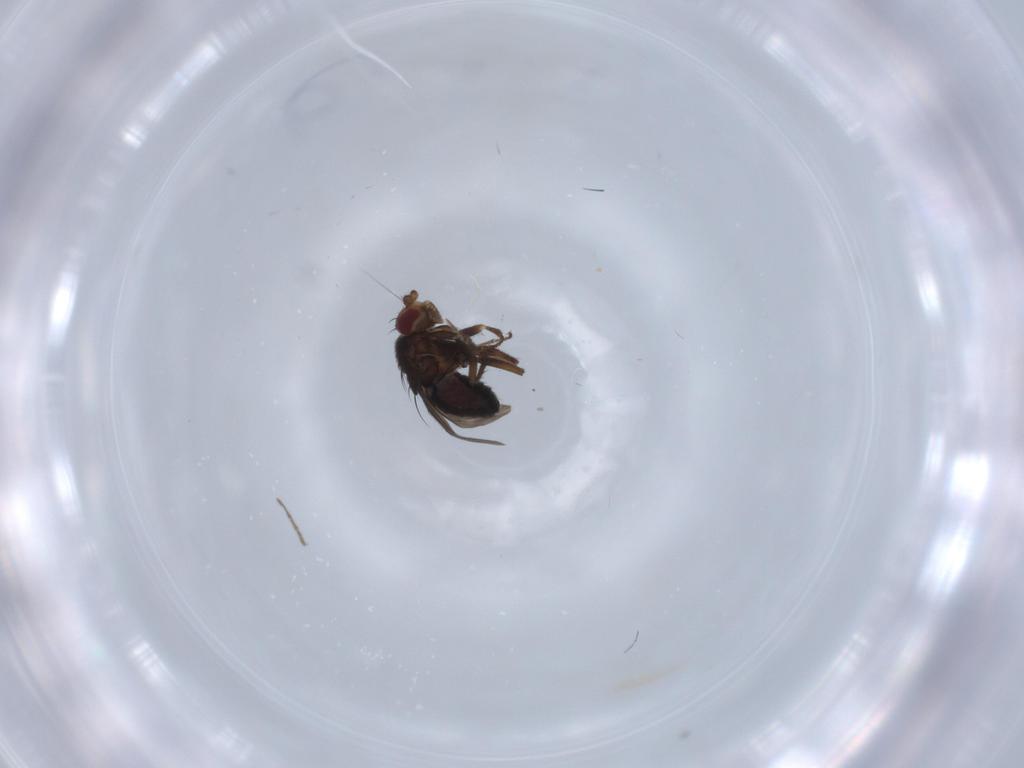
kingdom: Animalia
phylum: Arthropoda
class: Insecta
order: Diptera
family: Sphaeroceridae
